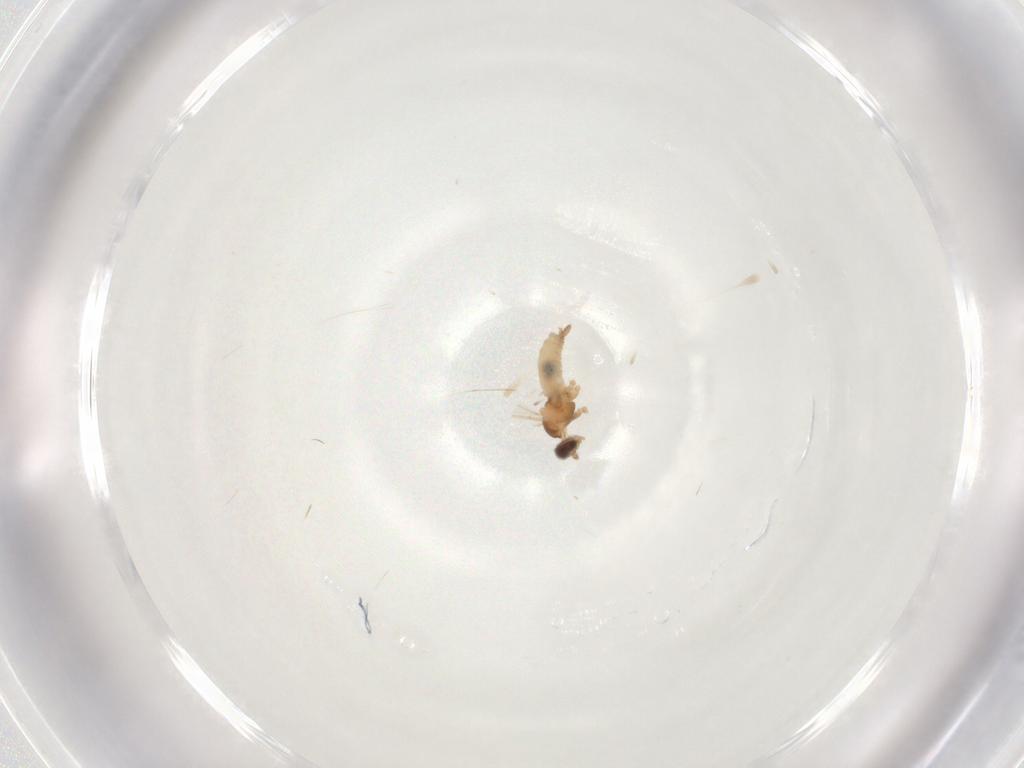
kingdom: Animalia
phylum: Arthropoda
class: Insecta
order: Diptera
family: Cecidomyiidae
